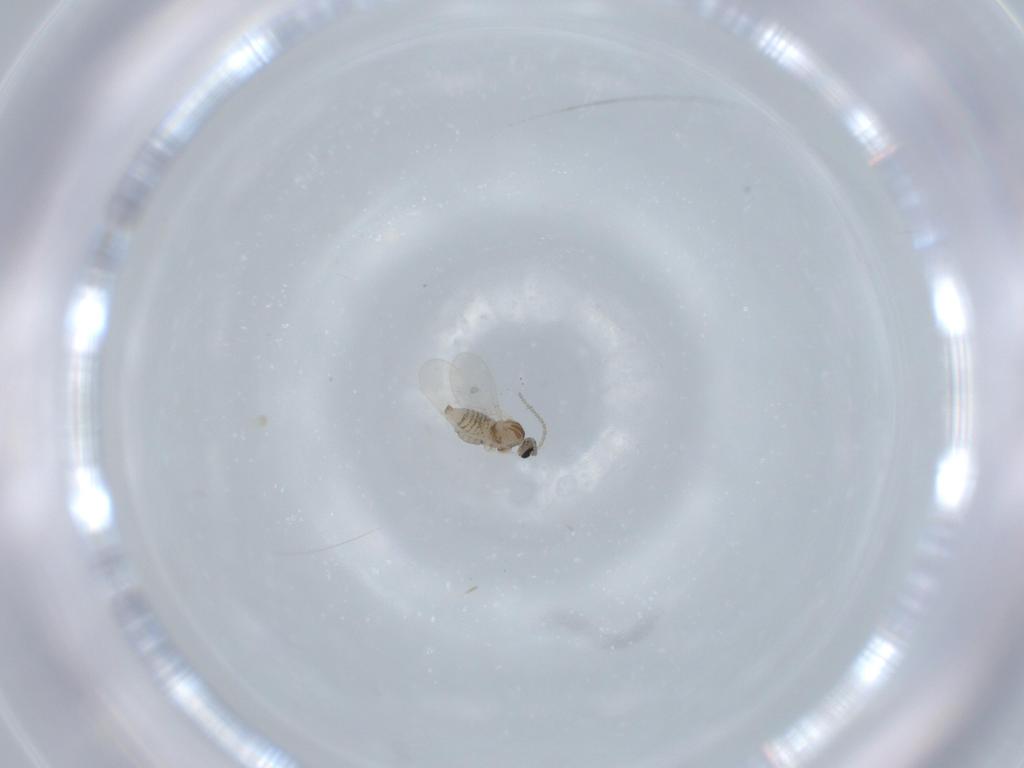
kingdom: Animalia
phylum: Arthropoda
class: Insecta
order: Diptera
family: Cecidomyiidae
